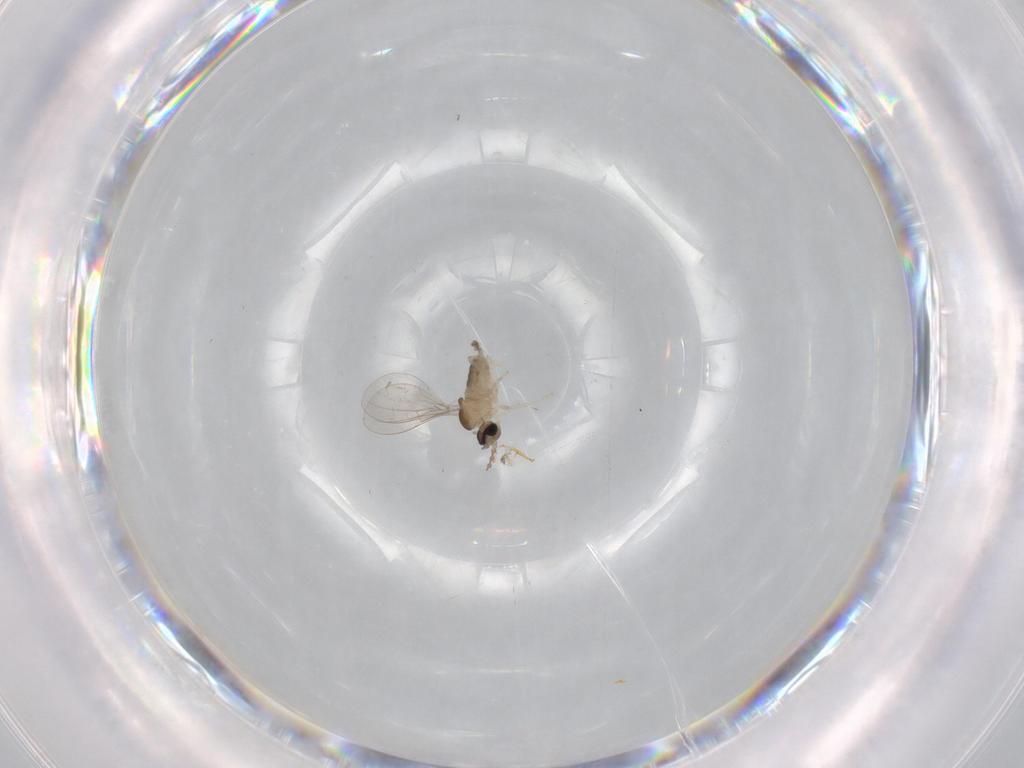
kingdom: Animalia
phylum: Arthropoda
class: Insecta
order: Diptera
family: Cecidomyiidae
